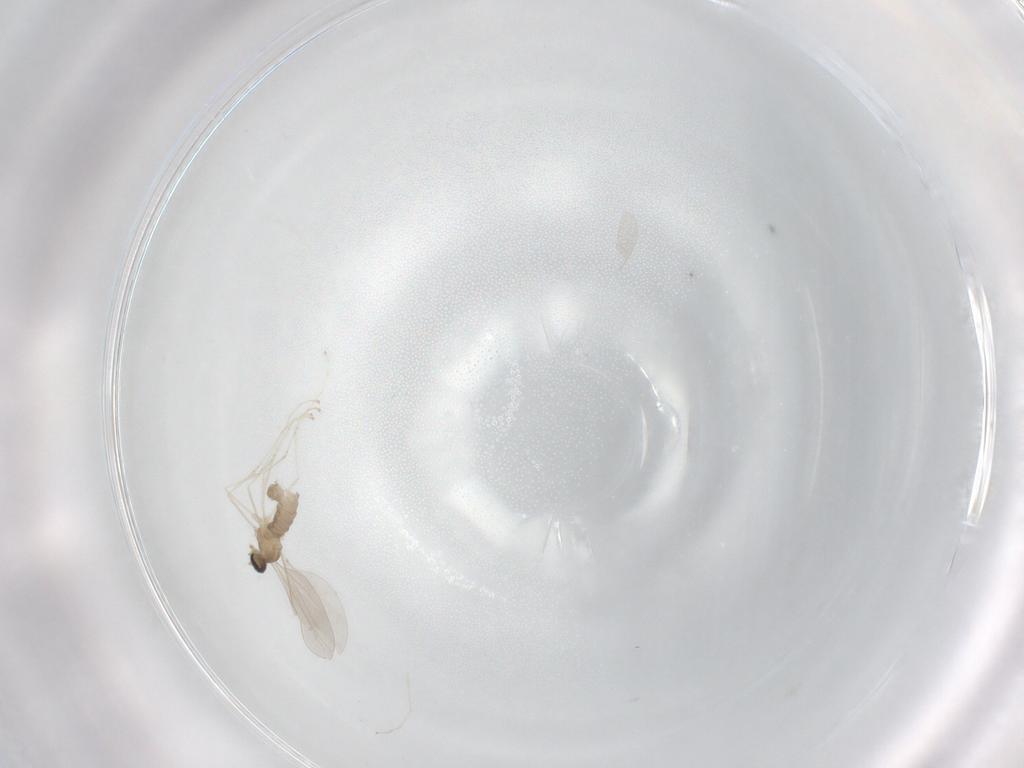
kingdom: Animalia
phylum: Arthropoda
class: Insecta
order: Diptera
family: Cecidomyiidae
